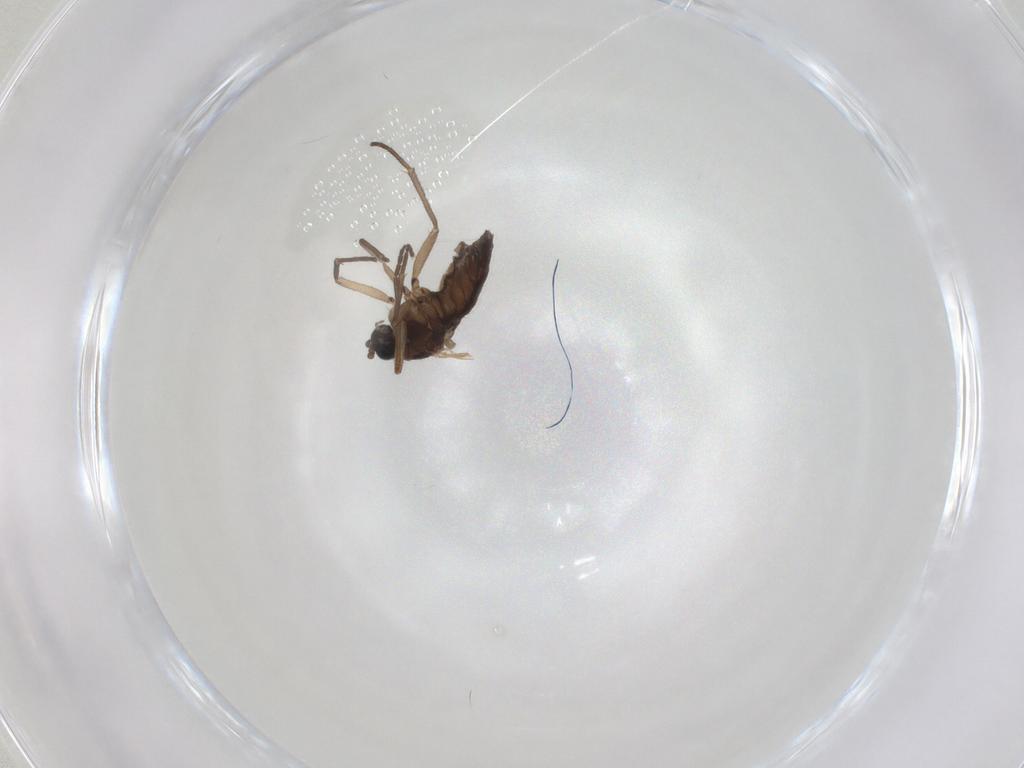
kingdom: Animalia
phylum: Arthropoda
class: Insecta
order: Diptera
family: Sciaridae
